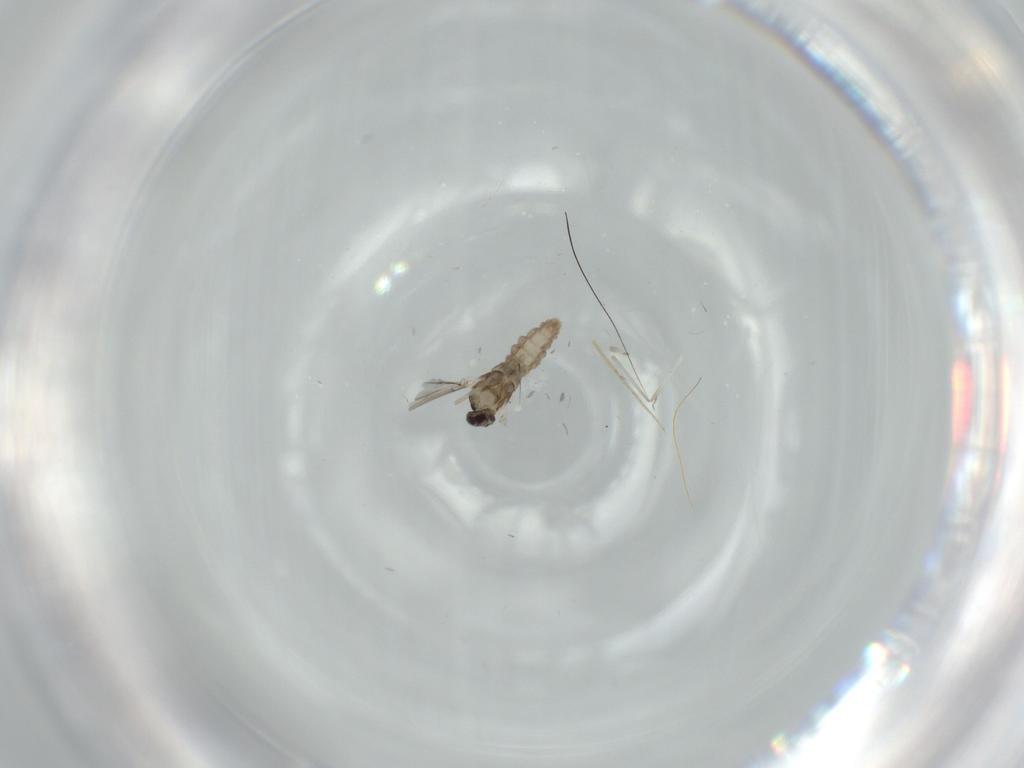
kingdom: Animalia
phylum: Arthropoda
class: Insecta
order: Diptera
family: Cecidomyiidae
